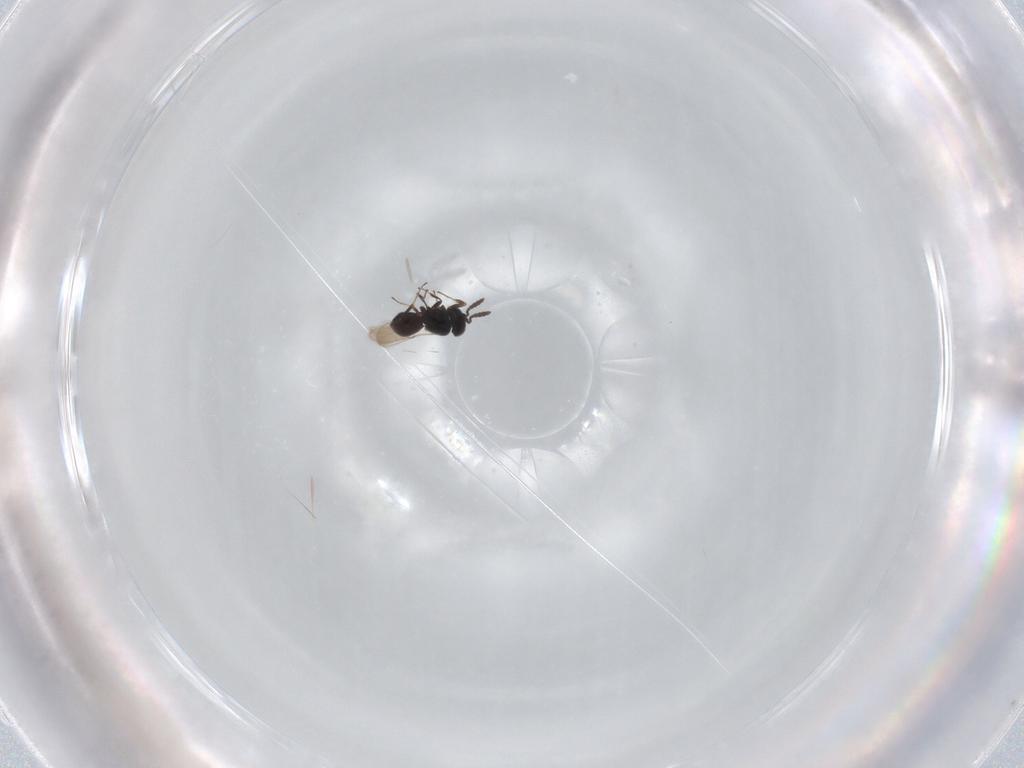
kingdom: Animalia
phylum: Arthropoda
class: Insecta
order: Hymenoptera
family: Scelionidae
